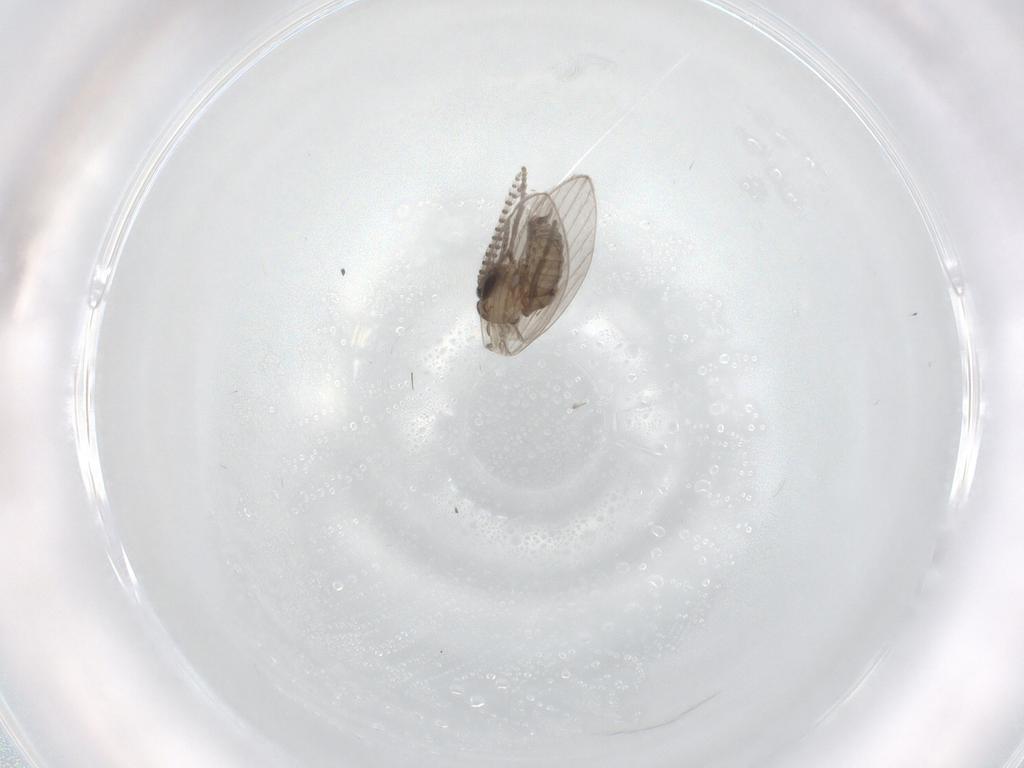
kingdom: Animalia
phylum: Arthropoda
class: Insecta
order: Diptera
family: Psychodidae
